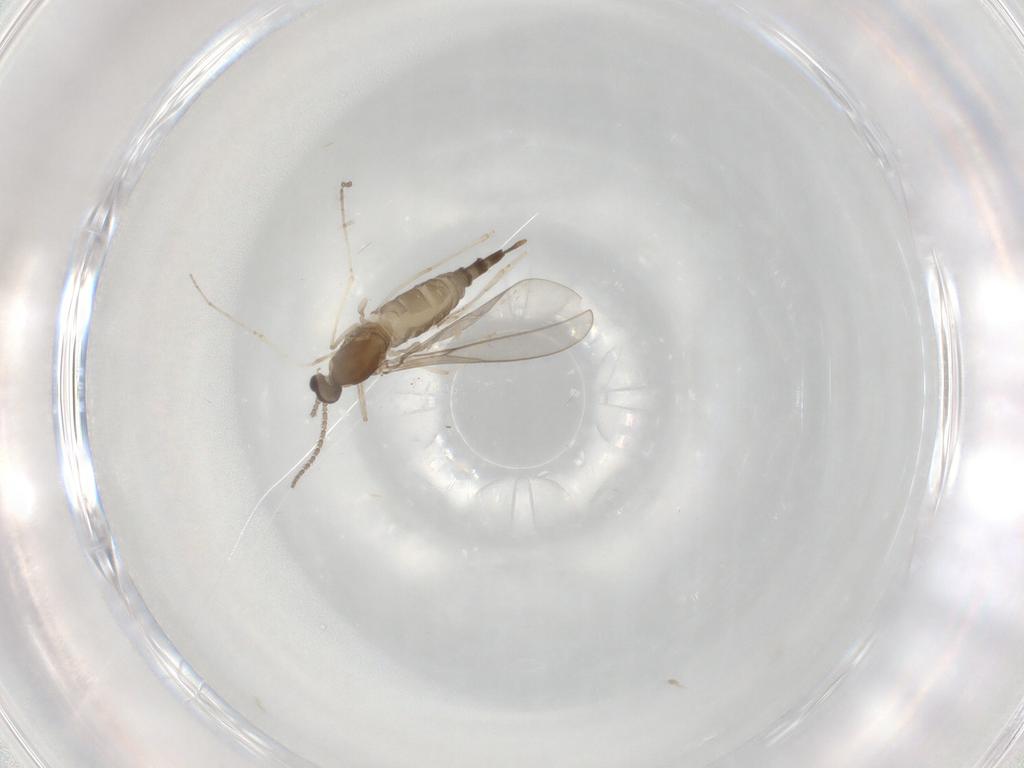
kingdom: Animalia
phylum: Arthropoda
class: Insecta
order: Diptera
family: Cecidomyiidae
